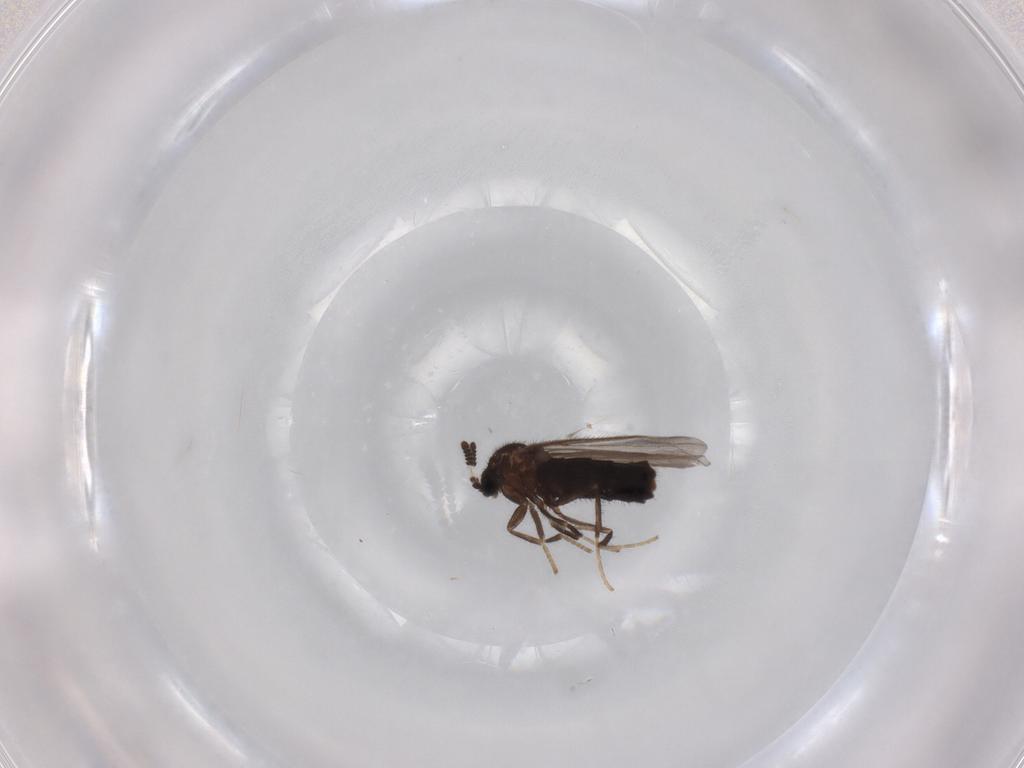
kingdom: Animalia
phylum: Arthropoda
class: Insecta
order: Diptera
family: Scatopsidae
